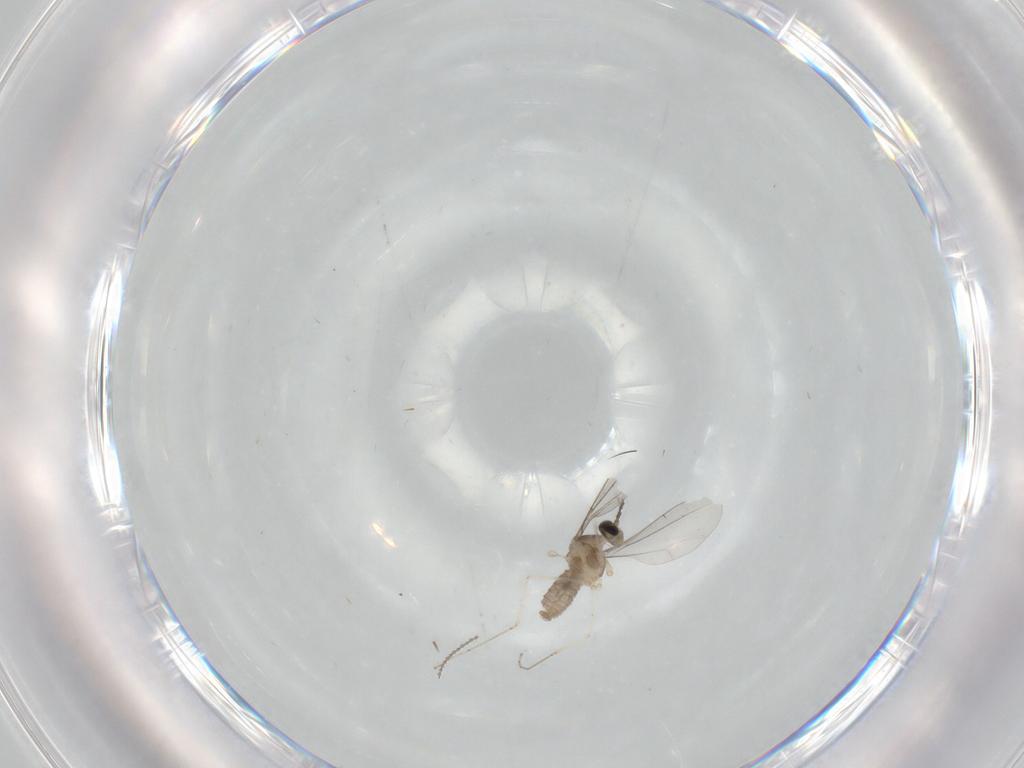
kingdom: Animalia
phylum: Arthropoda
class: Insecta
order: Diptera
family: Cecidomyiidae
